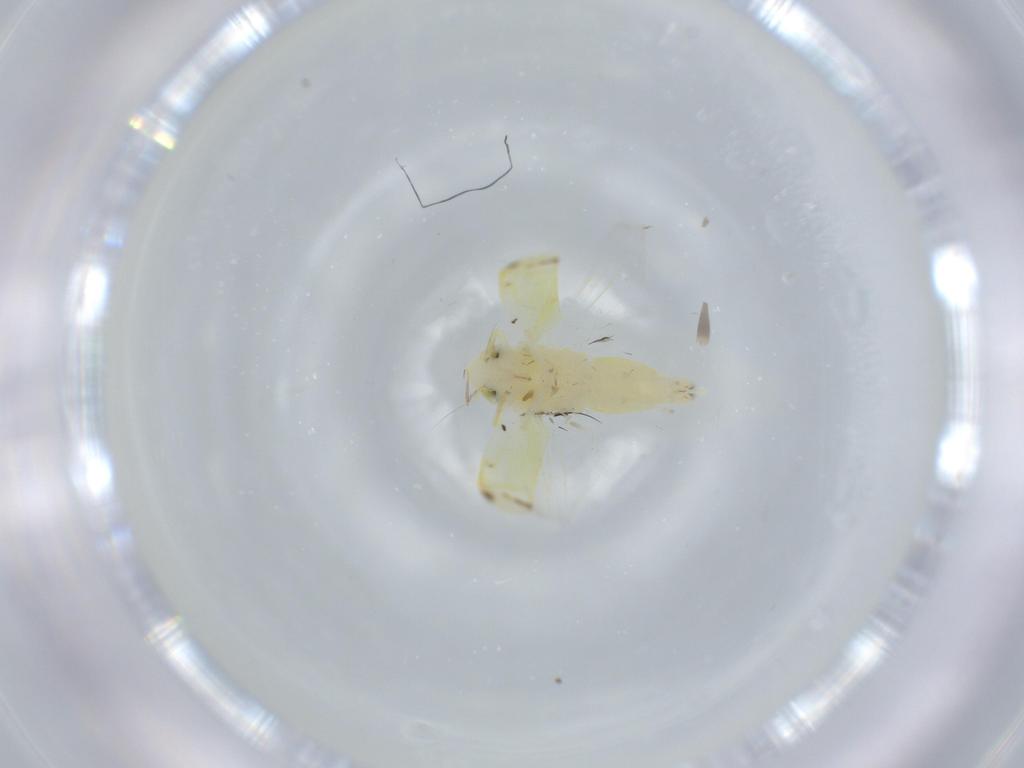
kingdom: Animalia
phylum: Arthropoda
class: Insecta
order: Hemiptera
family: Cicadellidae
